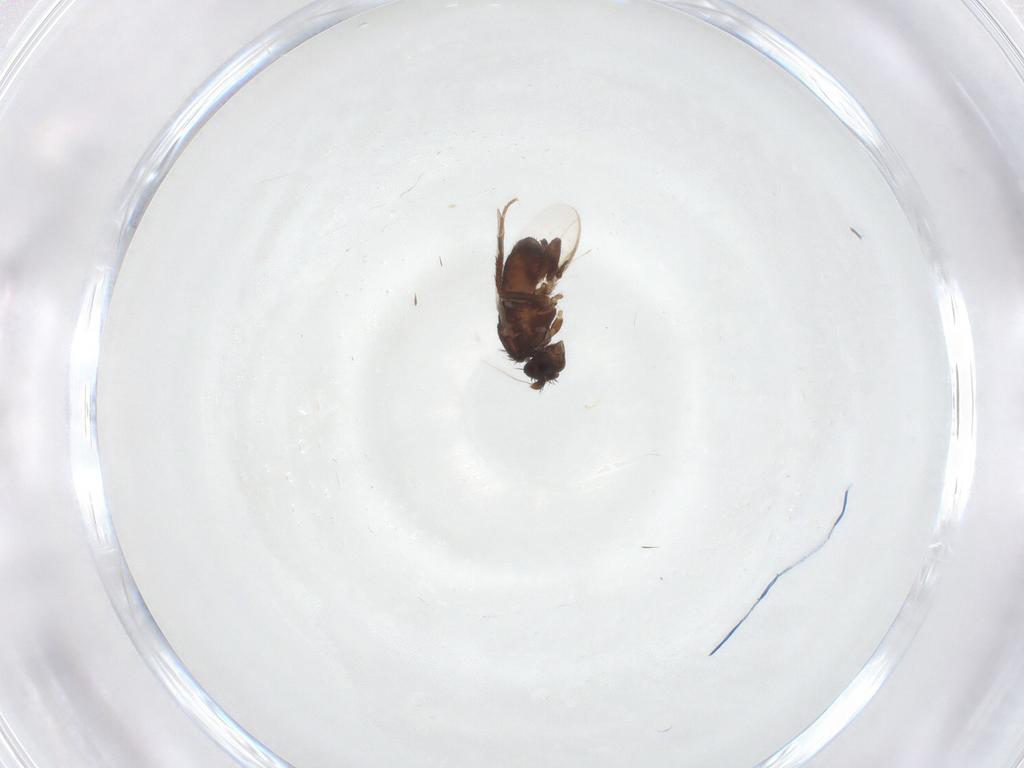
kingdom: Animalia
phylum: Arthropoda
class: Insecta
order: Diptera
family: Sphaeroceridae
